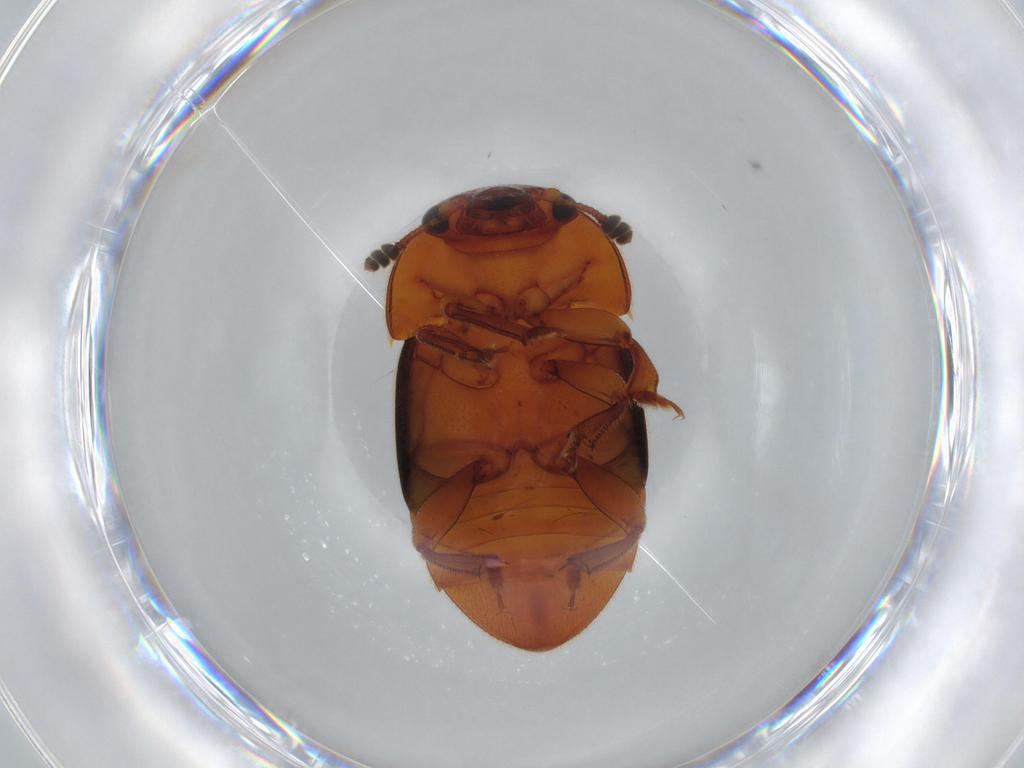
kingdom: Animalia
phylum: Arthropoda
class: Insecta
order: Coleoptera
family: Nitidulidae
